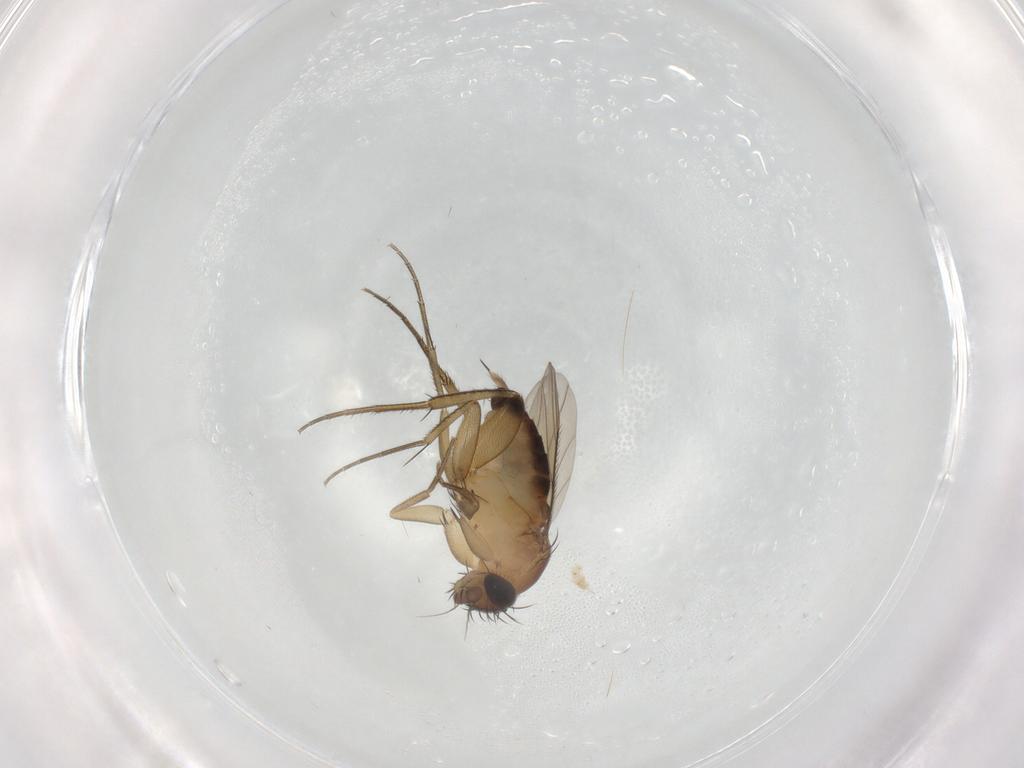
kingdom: Animalia
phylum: Arthropoda
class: Insecta
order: Diptera
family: Phoridae
